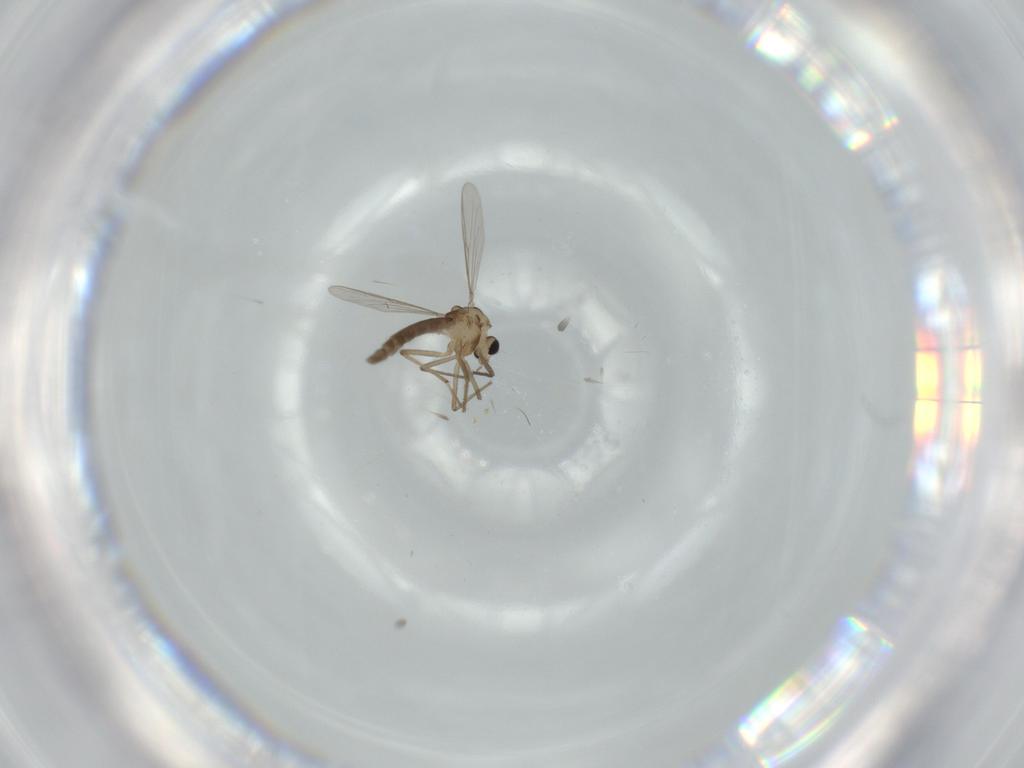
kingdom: Animalia
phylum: Arthropoda
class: Insecta
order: Diptera
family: Chironomidae
